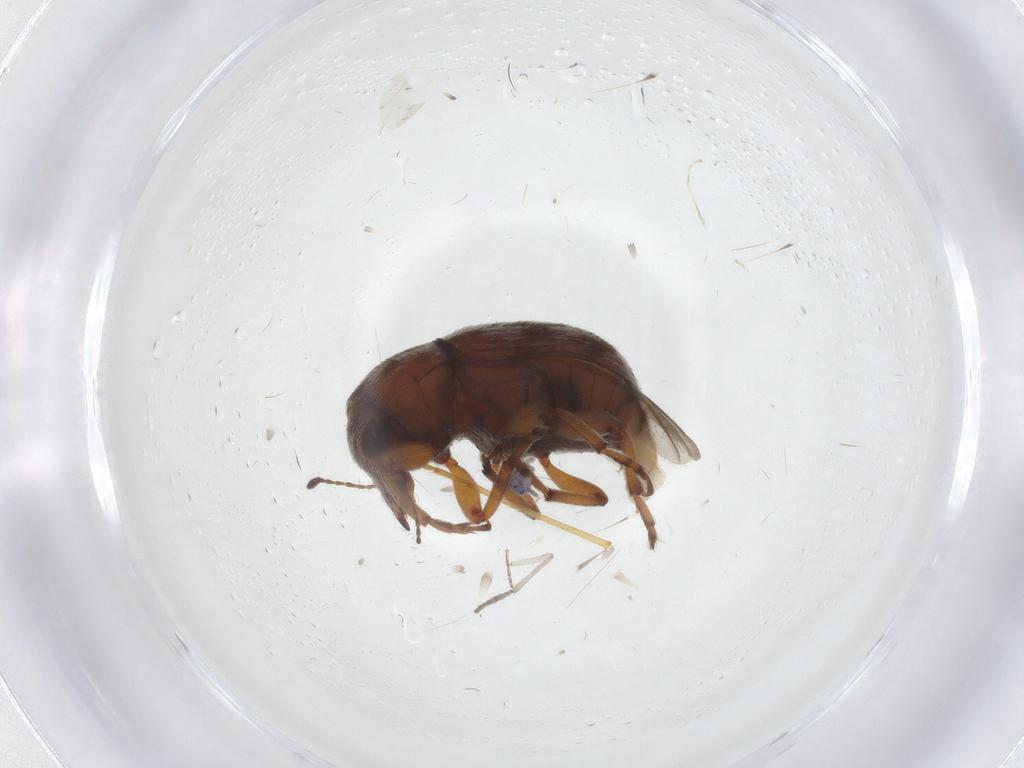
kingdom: Animalia
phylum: Arthropoda
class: Insecta
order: Coleoptera
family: Anthribidae
